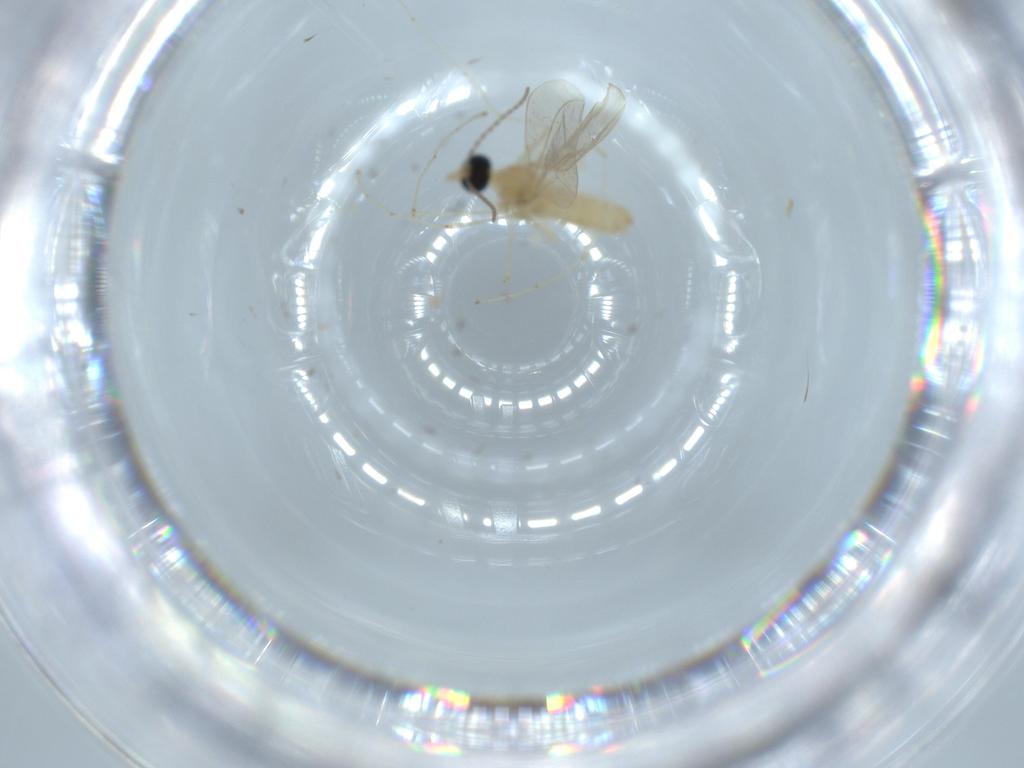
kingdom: Animalia
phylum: Arthropoda
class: Insecta
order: Diptera
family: Cecidomyiidae
